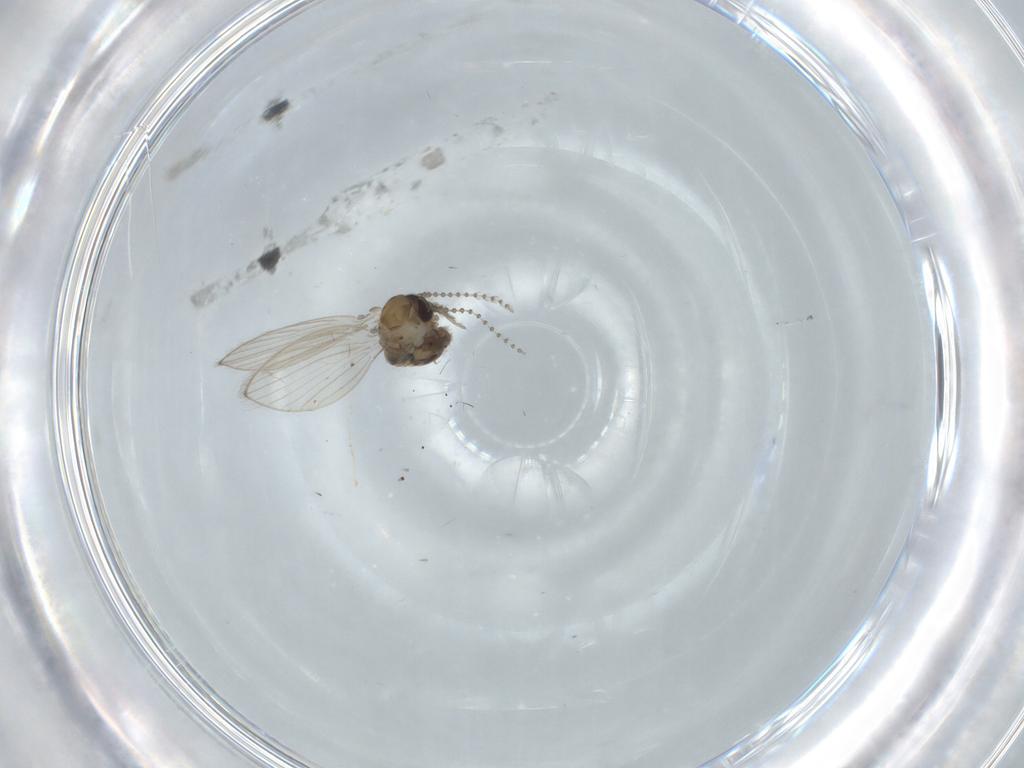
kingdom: Animalia
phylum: Arthropoda
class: Insecta
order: Diptera
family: Psychodidae
